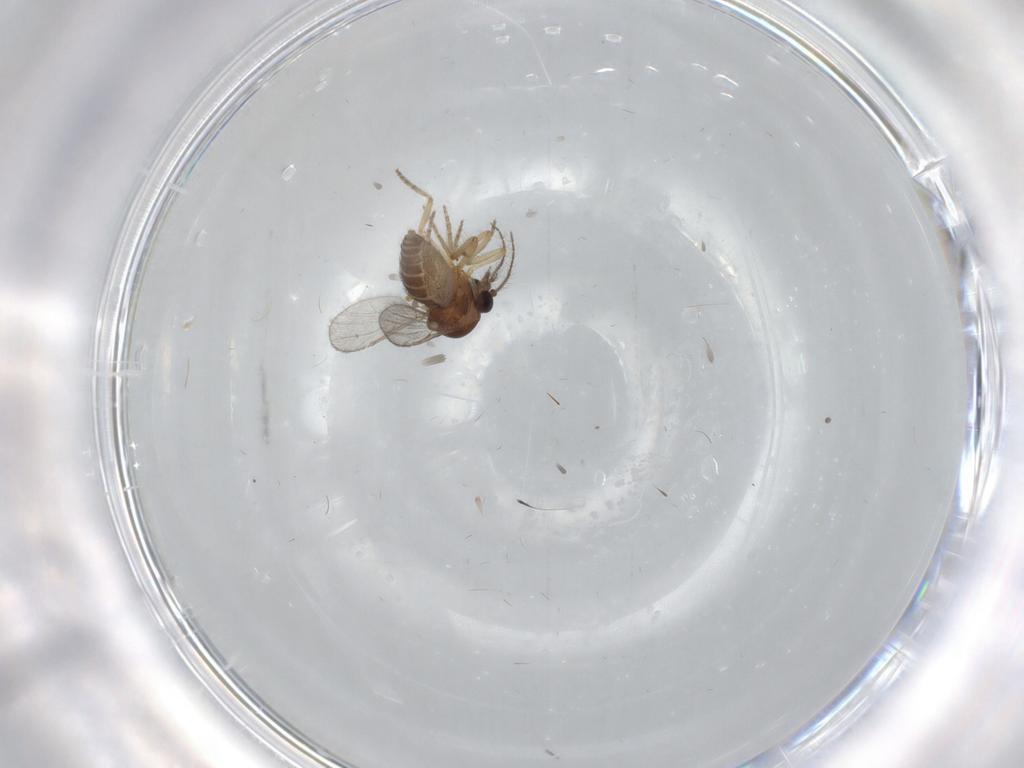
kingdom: Animalia
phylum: Arthropoda
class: Insecta
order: Diptera
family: Ceratopogonidae
